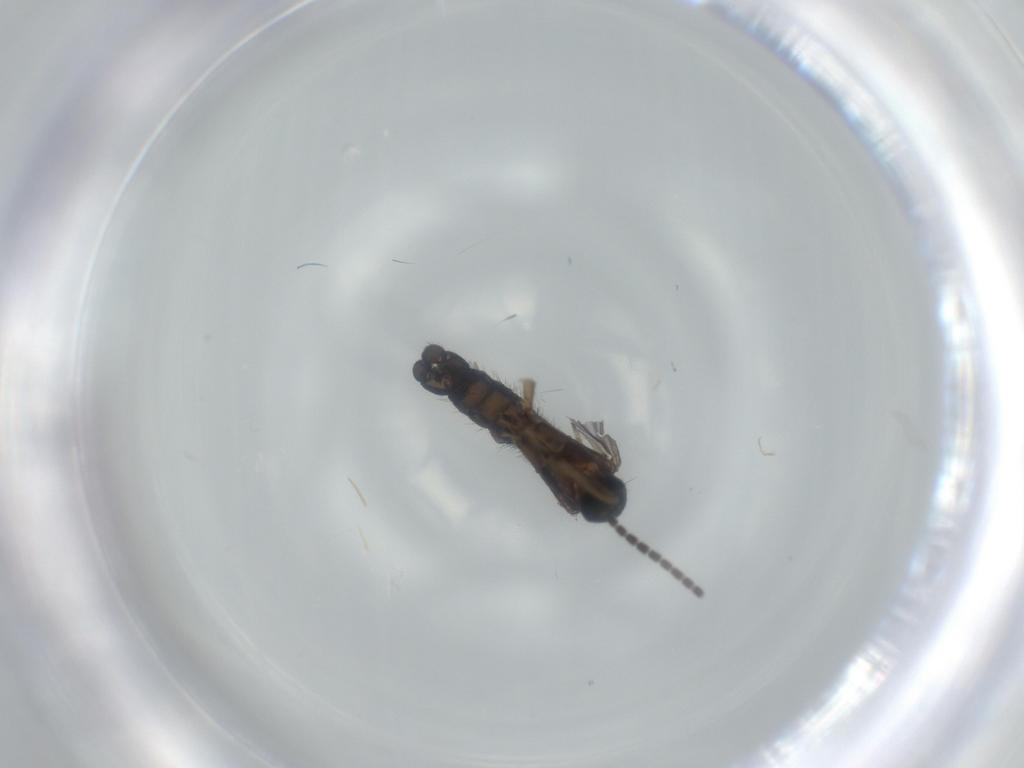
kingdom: Animalia
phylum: Arthropoda
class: Insecta
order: Diptera
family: Sciaridae
